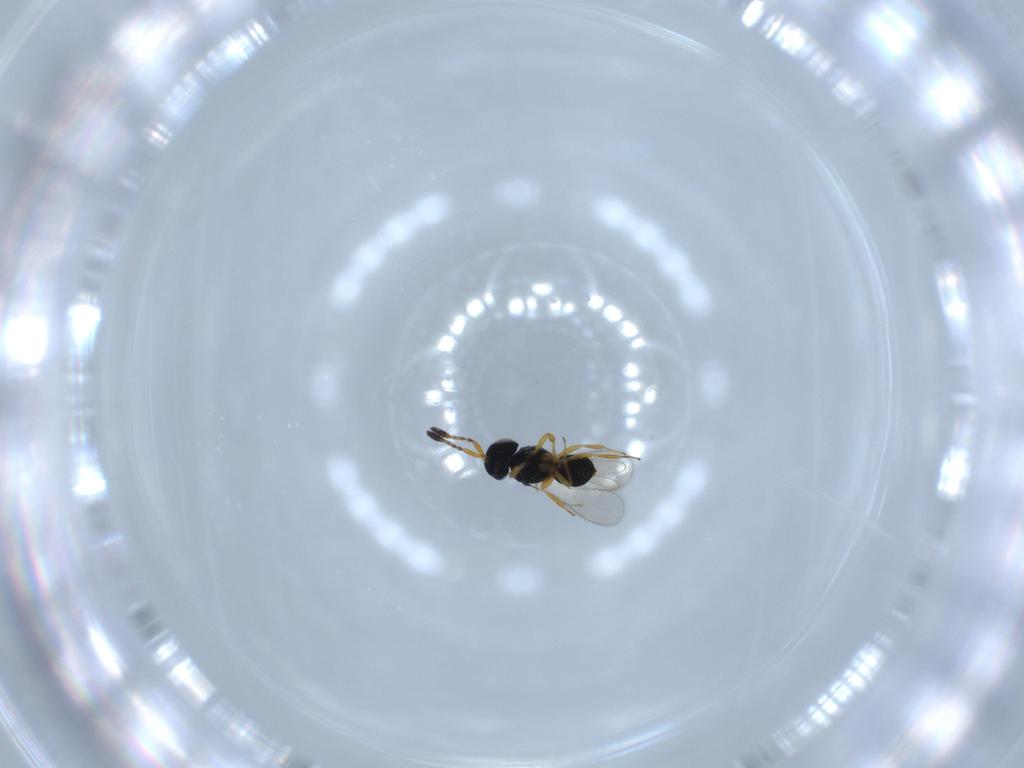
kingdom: Animalia
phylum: Arthropoda
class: Insecta
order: Hymenoptera
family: Scelionidae
